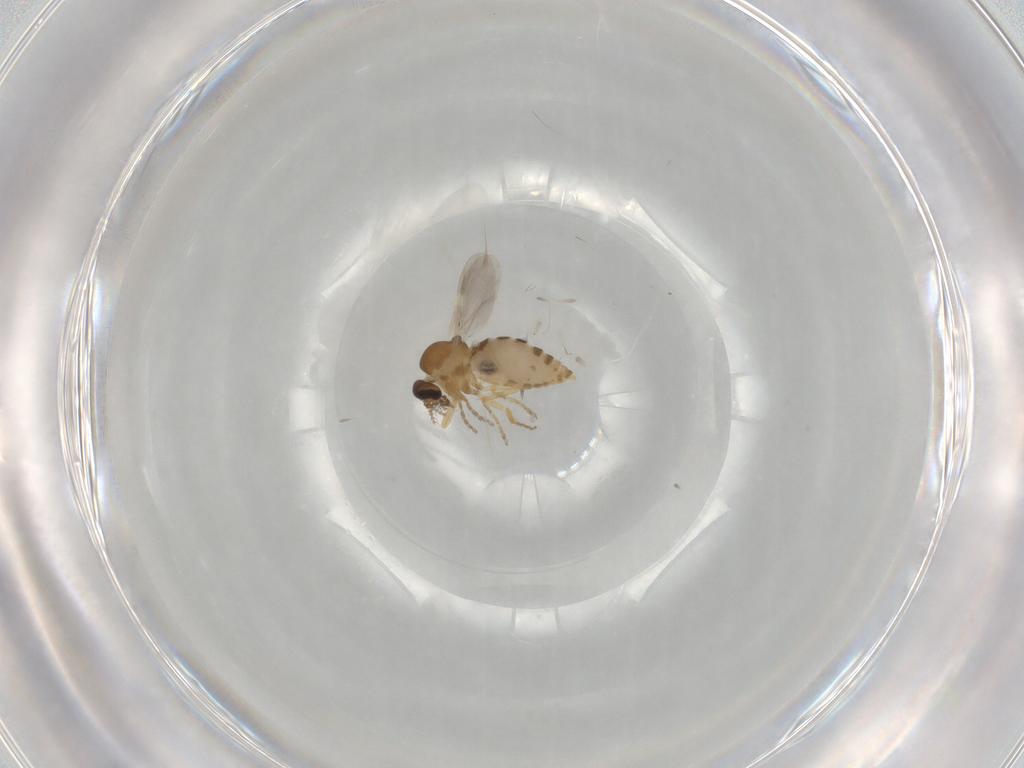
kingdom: Animalia
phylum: Arthropoda
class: Insecta
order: Diptera
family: Ceratopogonidae
